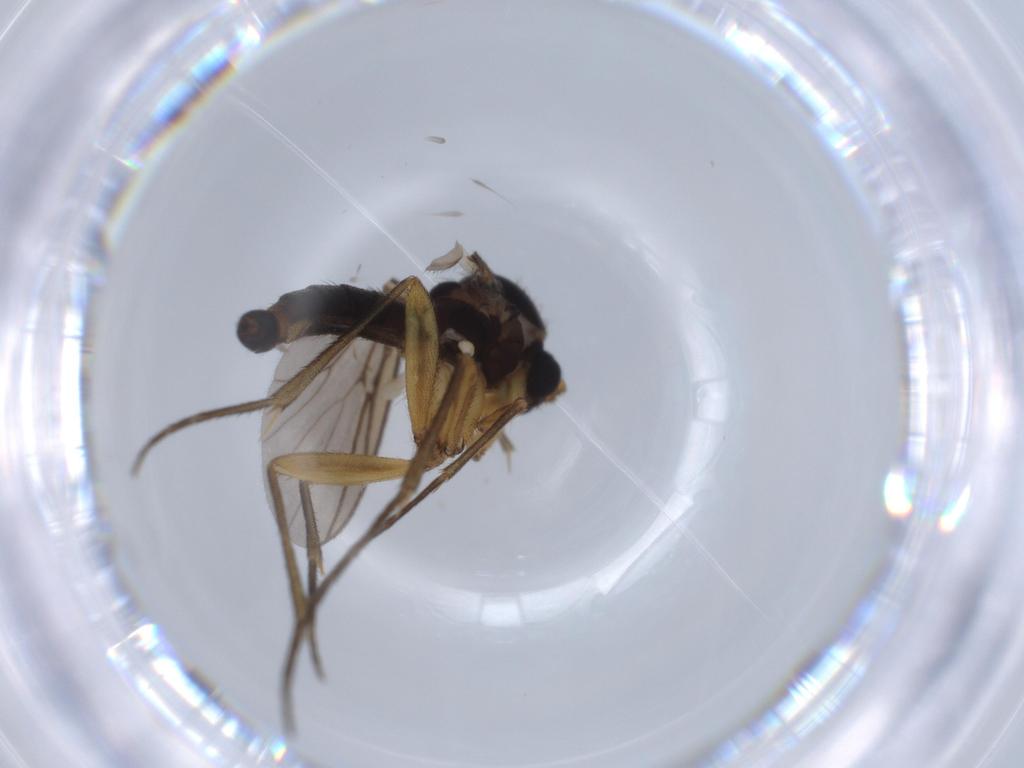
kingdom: Animalia
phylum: Arthropoda
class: Insecta
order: Diptera
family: Sciaridae
